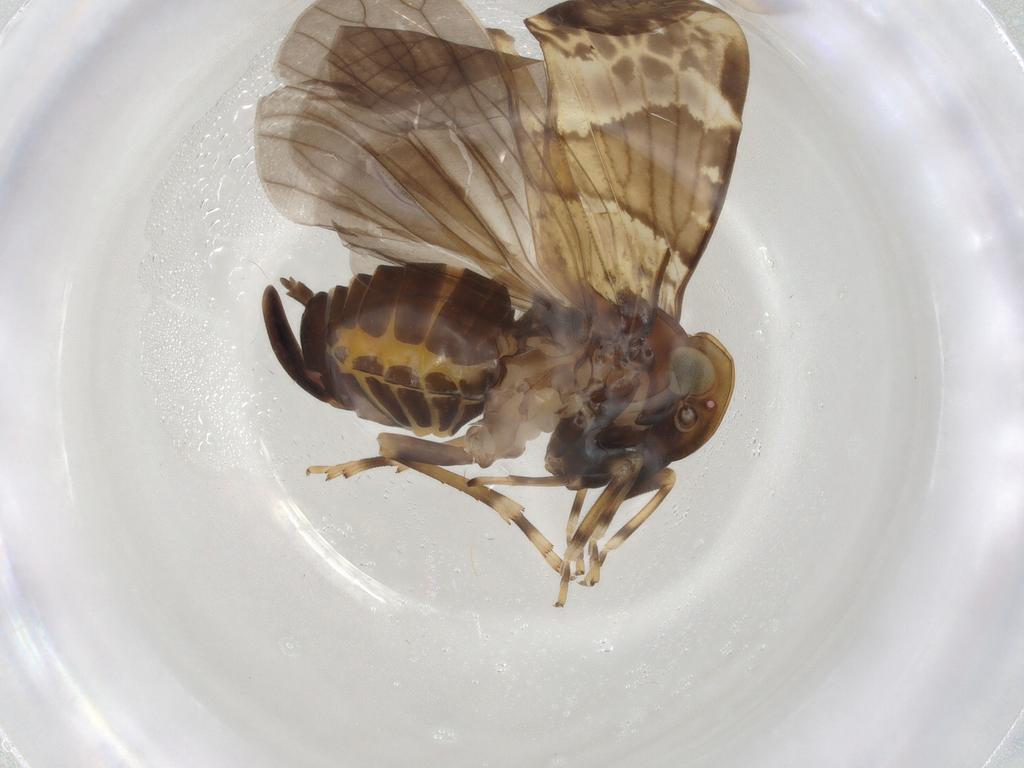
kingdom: Animalia
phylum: Arthropoda
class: Insecta
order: Hemiptera
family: Cixiidae
